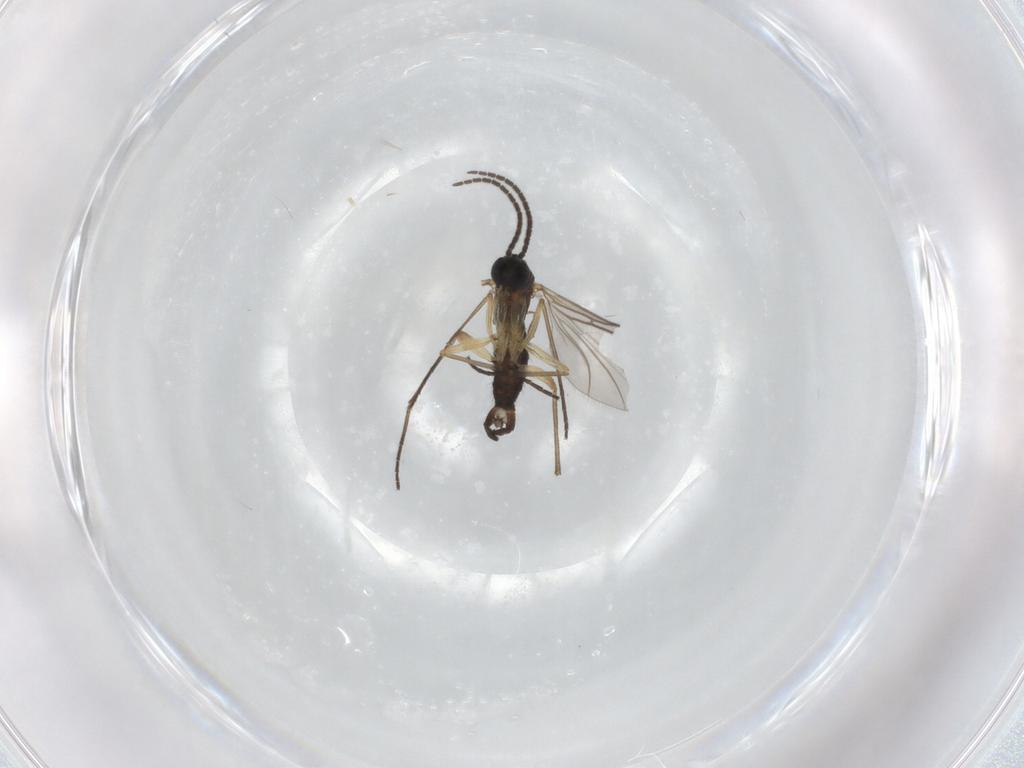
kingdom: Animalia
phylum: Arthropoda
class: Insecta
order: Diptera
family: Sciaridae
